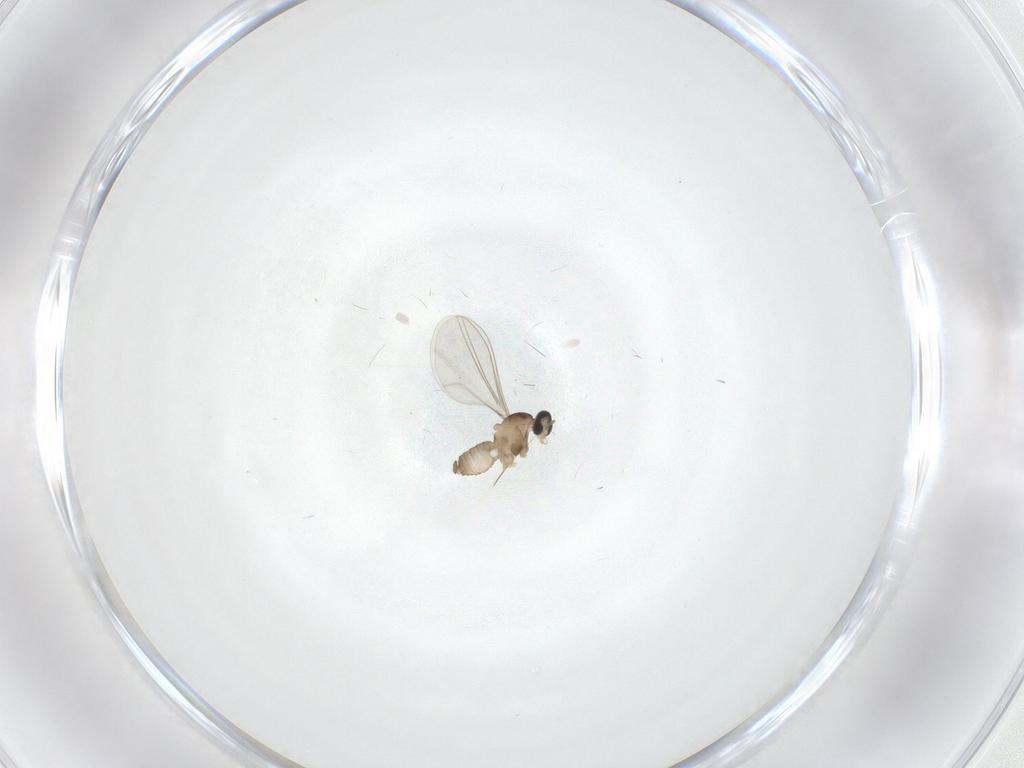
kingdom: Animalia
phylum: Arthropoda
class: Insecta
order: Diptera
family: Cecidomyiidae
